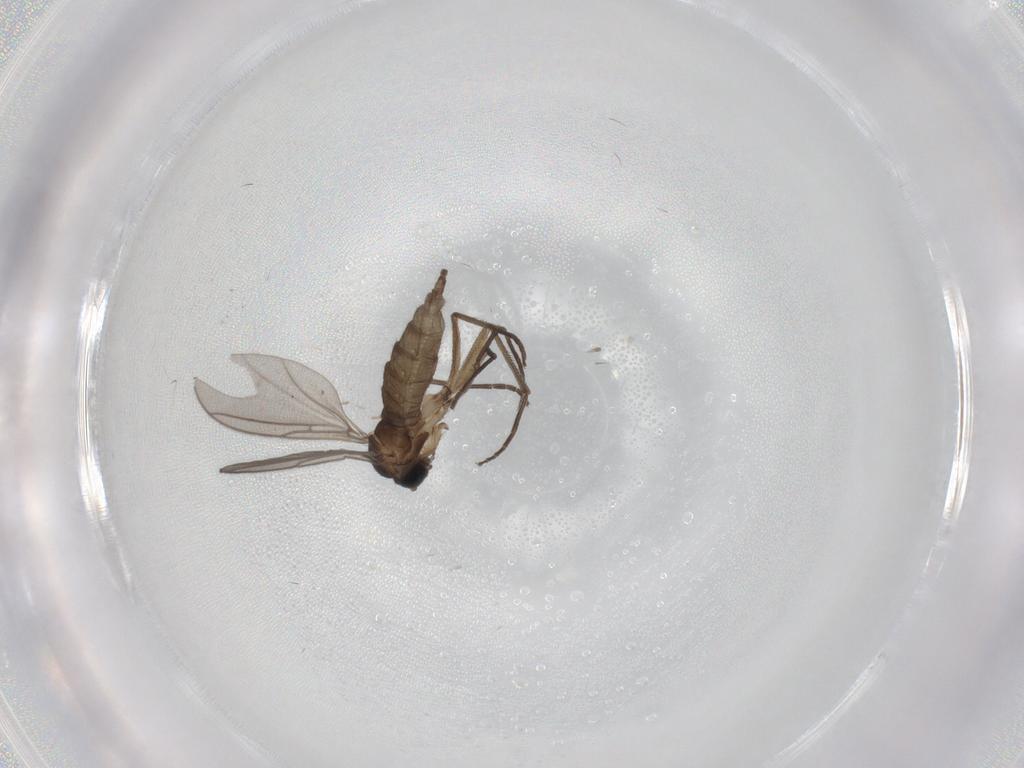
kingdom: Animalia
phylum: Arthropoda
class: Insecta
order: Diptera
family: Sciaridae
